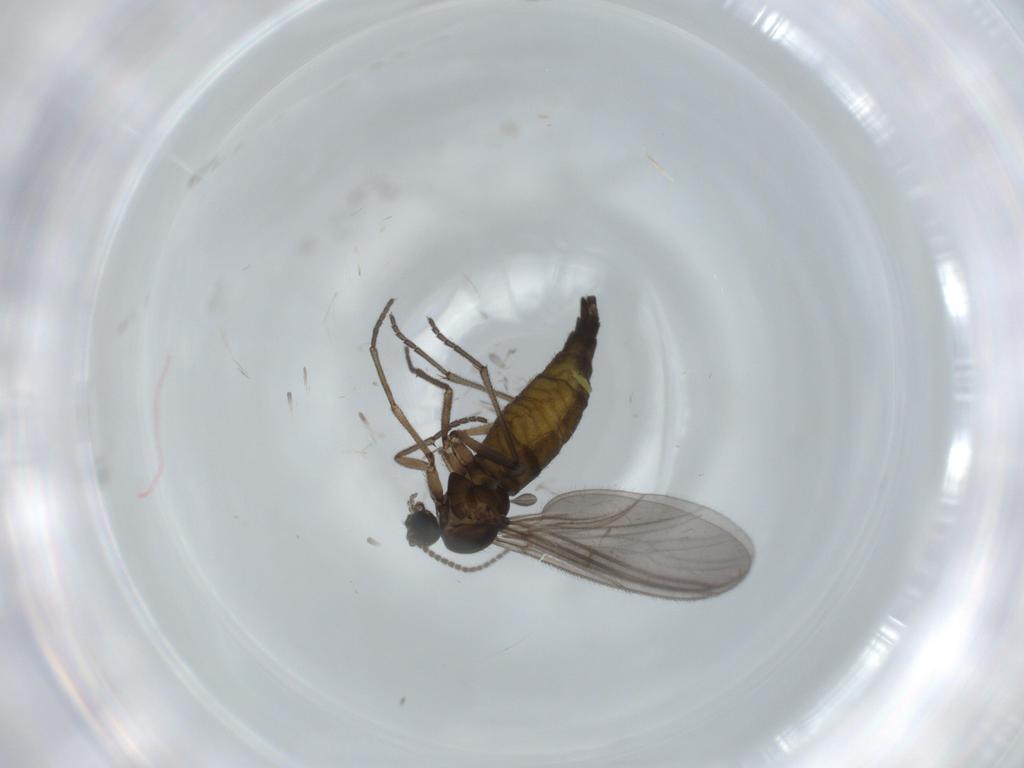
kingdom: Animalia
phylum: Arthropoda
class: Insecta
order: Diptera
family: Sciaridae
